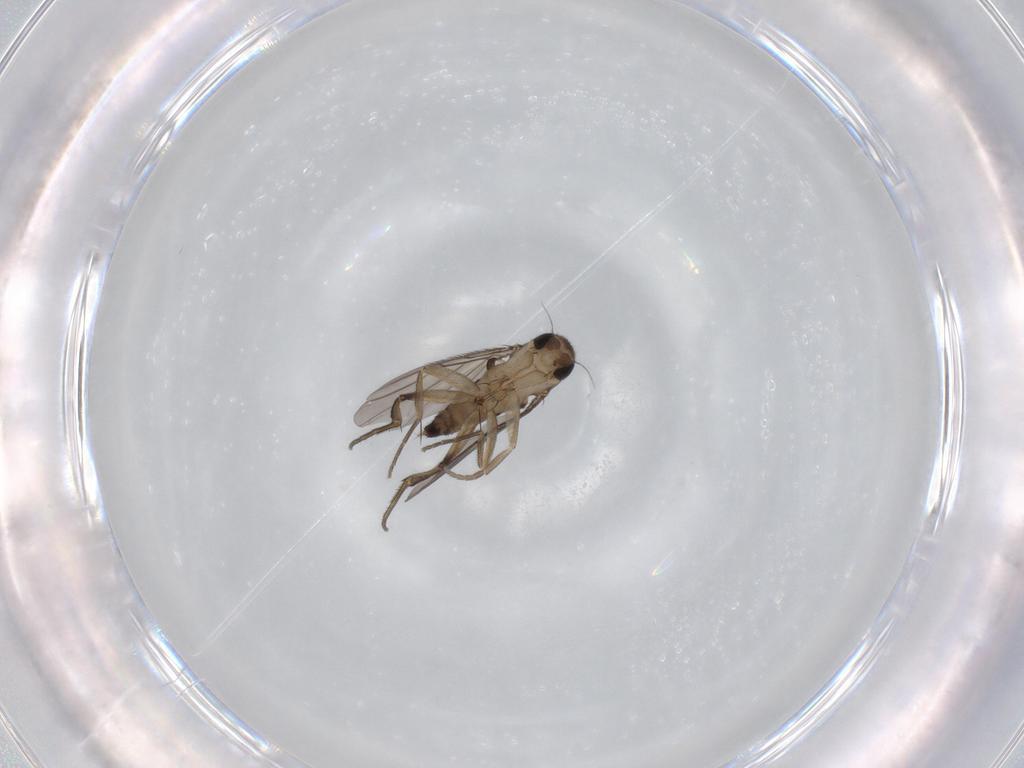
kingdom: Animalia
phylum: Arthropoda
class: Insecta
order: Diptera
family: Phoridae
